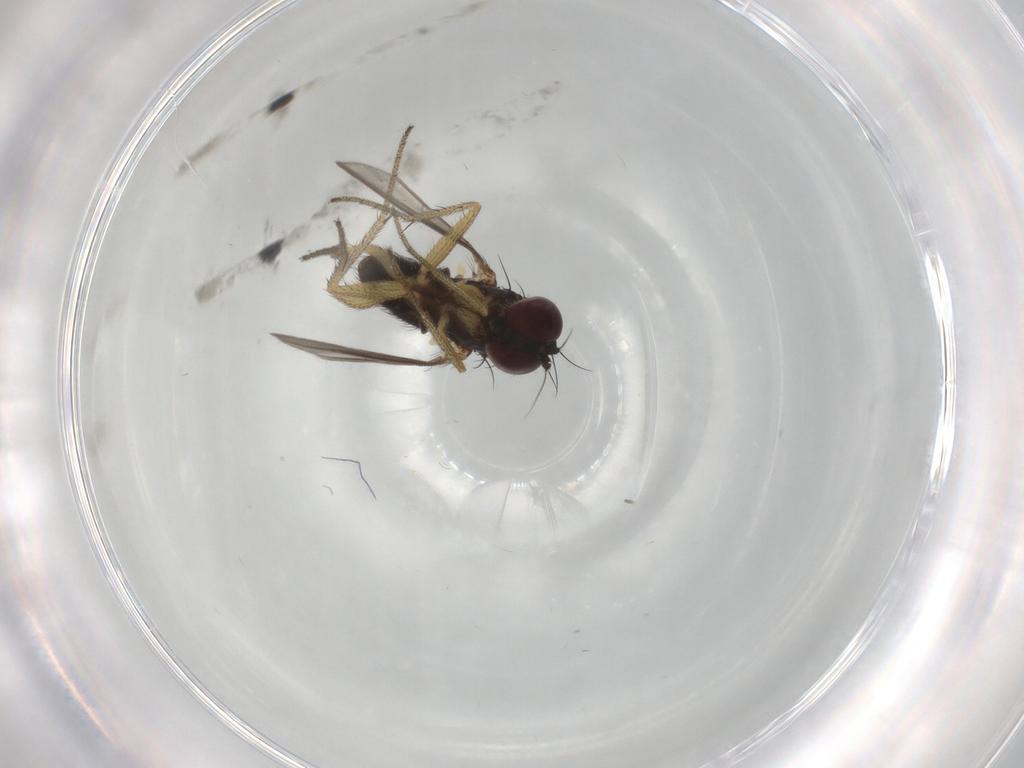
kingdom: Animalia
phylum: Arthropoda
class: Insecta
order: Diptera
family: Dolichopodidae
